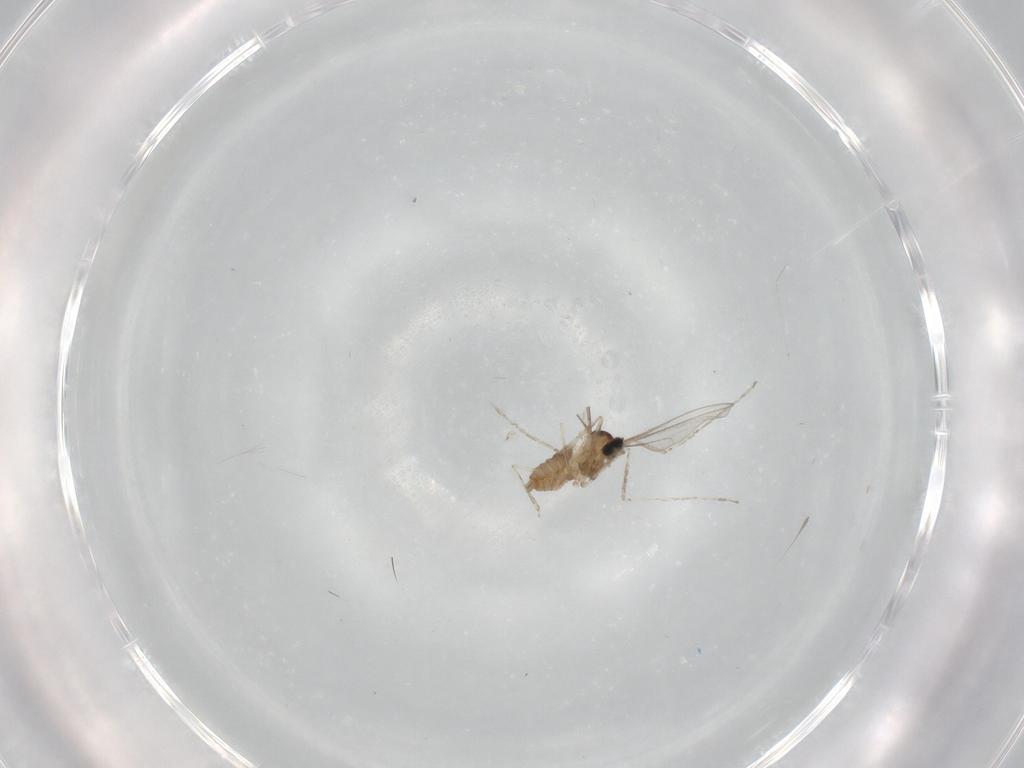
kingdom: Animalia
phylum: Arthropoda
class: Insecta
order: Diptera
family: Cecidomyiidae
